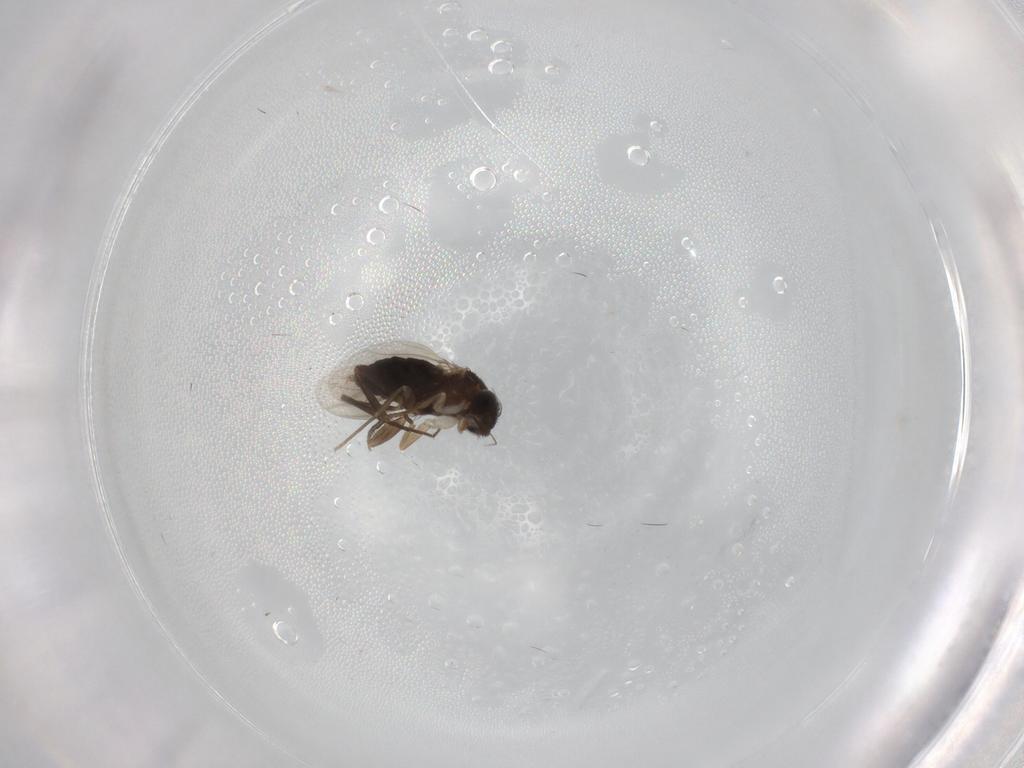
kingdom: Animalia
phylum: Arthropoda
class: Insecta
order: Diptera
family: Phoridae
